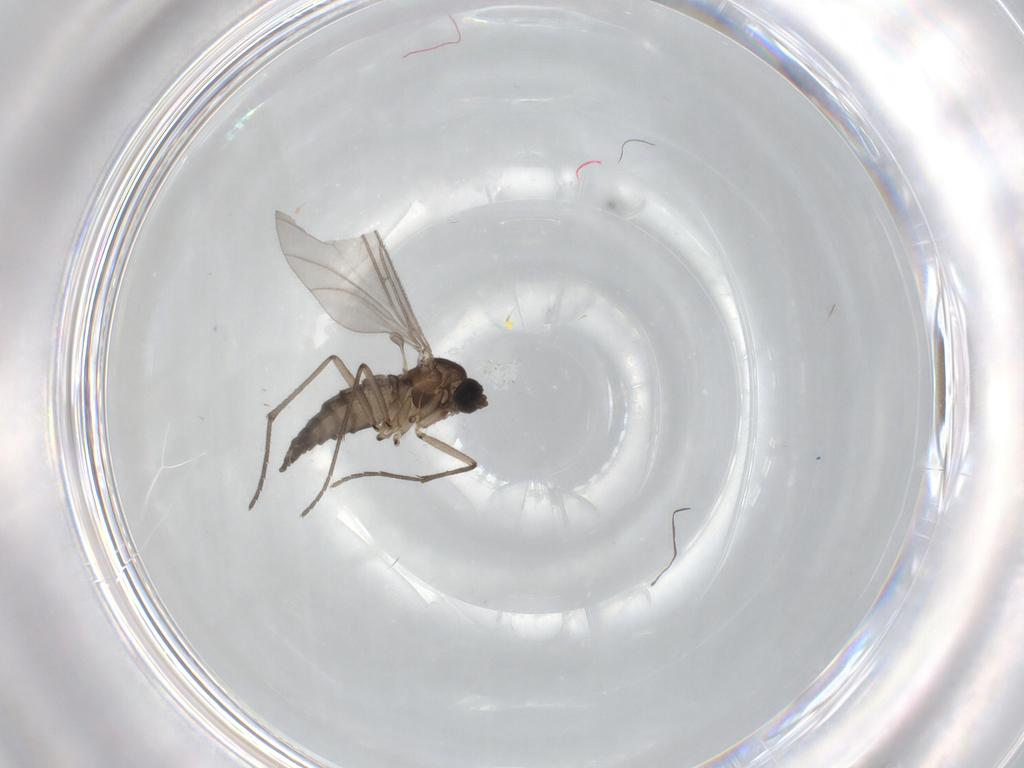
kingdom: Animalia
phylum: Arthropoda
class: Insecta
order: Diptera
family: Sciaridae
